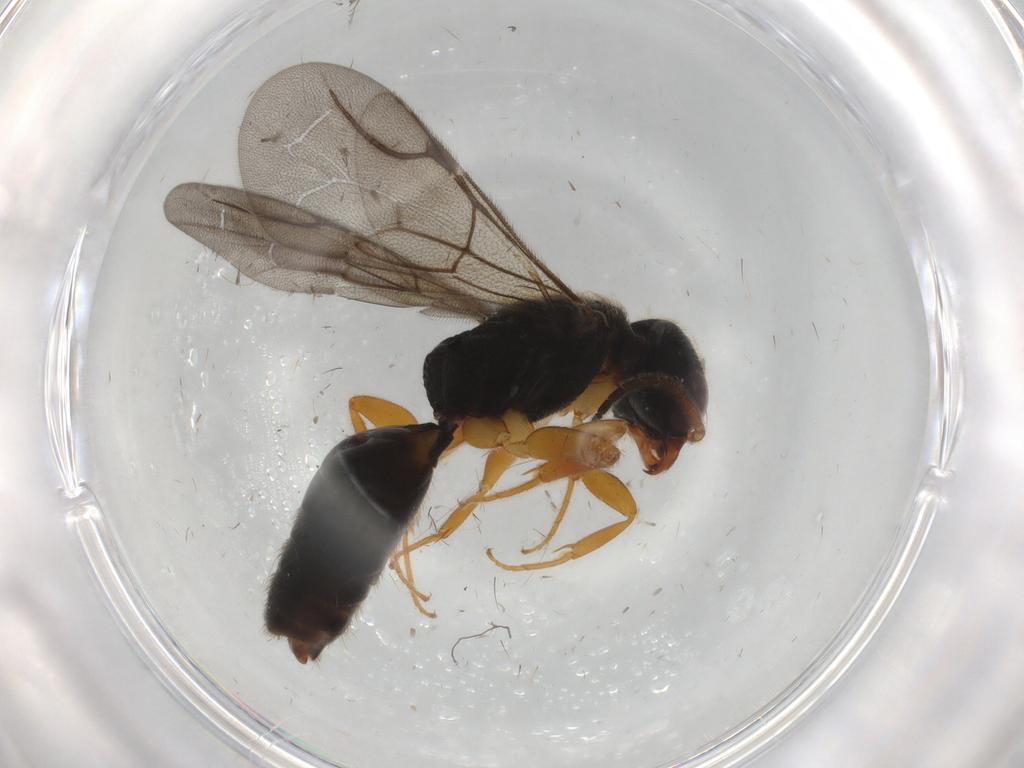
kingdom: Animalia
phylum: Arthropoda
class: Insecta
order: Hymenoptera
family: Bethylidae
